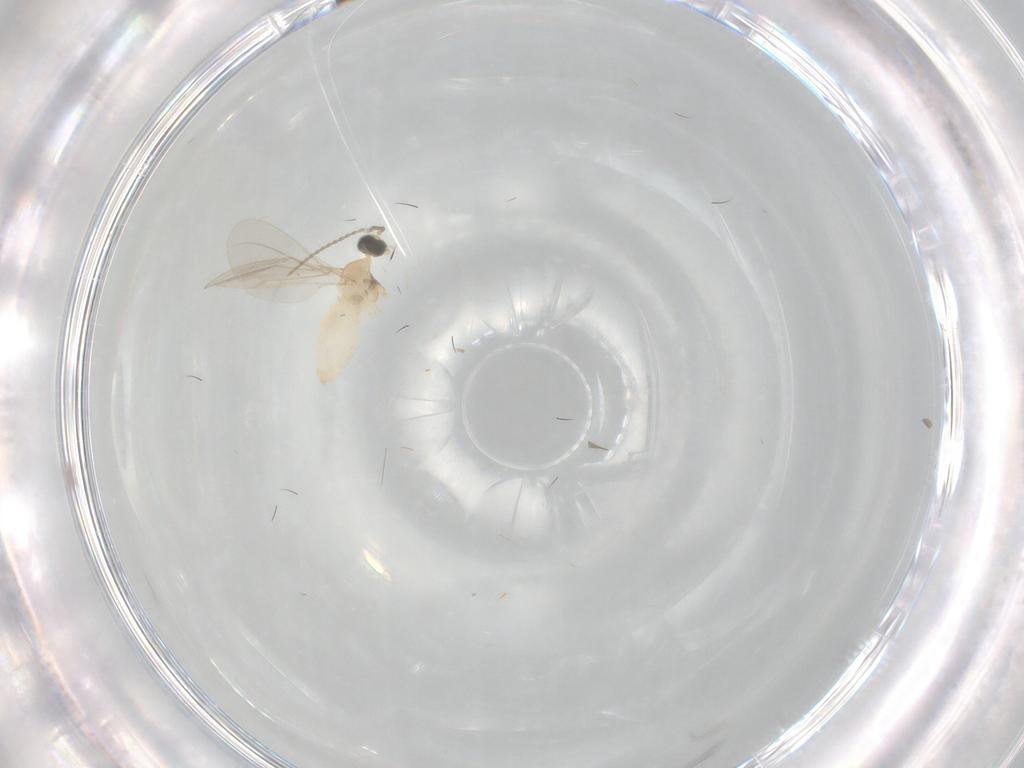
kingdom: Animalia
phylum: Arthropoda
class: Insecta
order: Diptera
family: Cecidomyiidae
